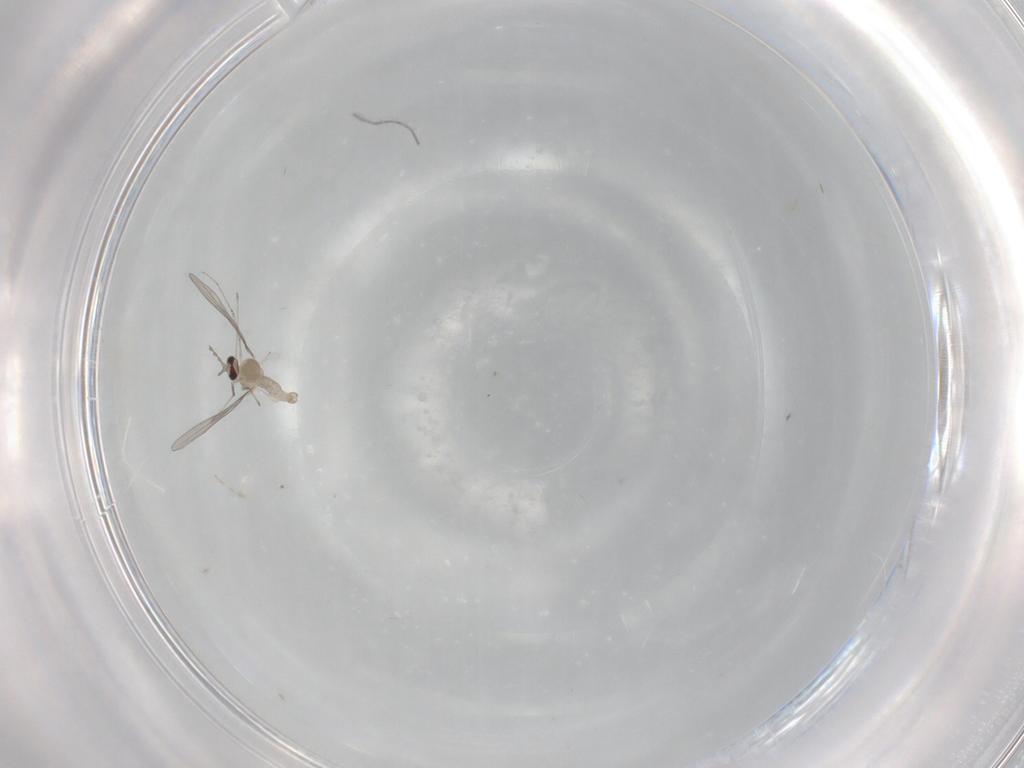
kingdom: Animalia
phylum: Arthropoda
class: Insecta
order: Diptera
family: Cecidomyiidae
